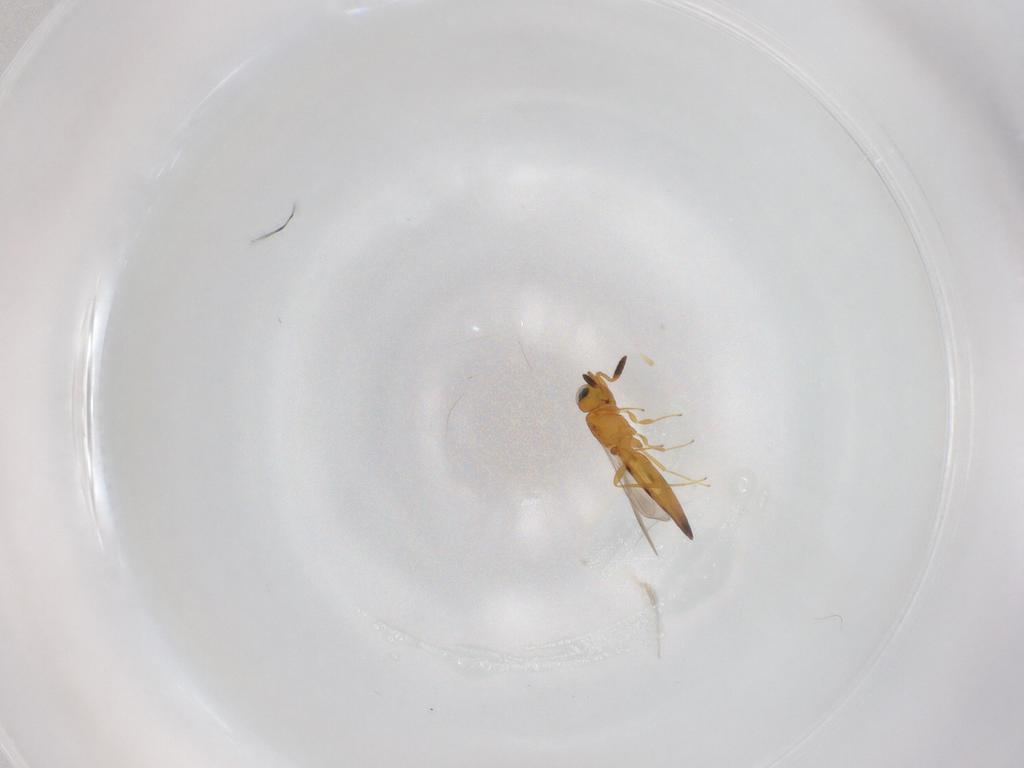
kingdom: Animalia
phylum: Arthropoda
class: Insecta
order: Hymenoptera
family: Scelionidae
